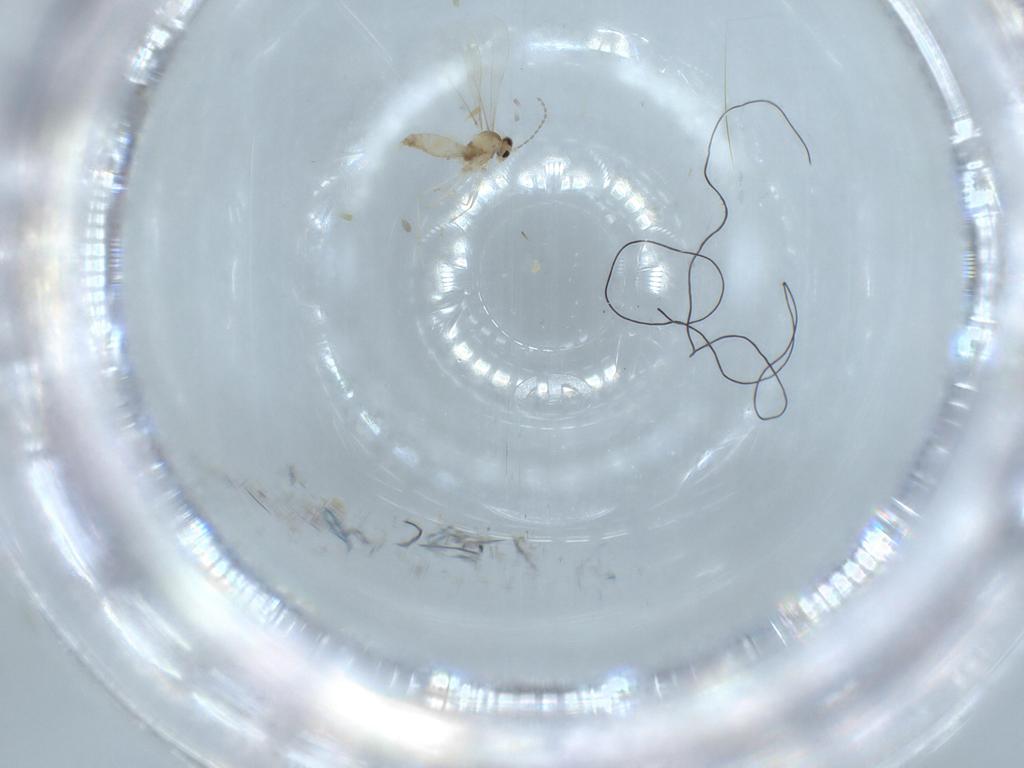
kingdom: Animalia
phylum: Arthropoda
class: Insecta
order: Diptera
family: Cecidomyiidae
